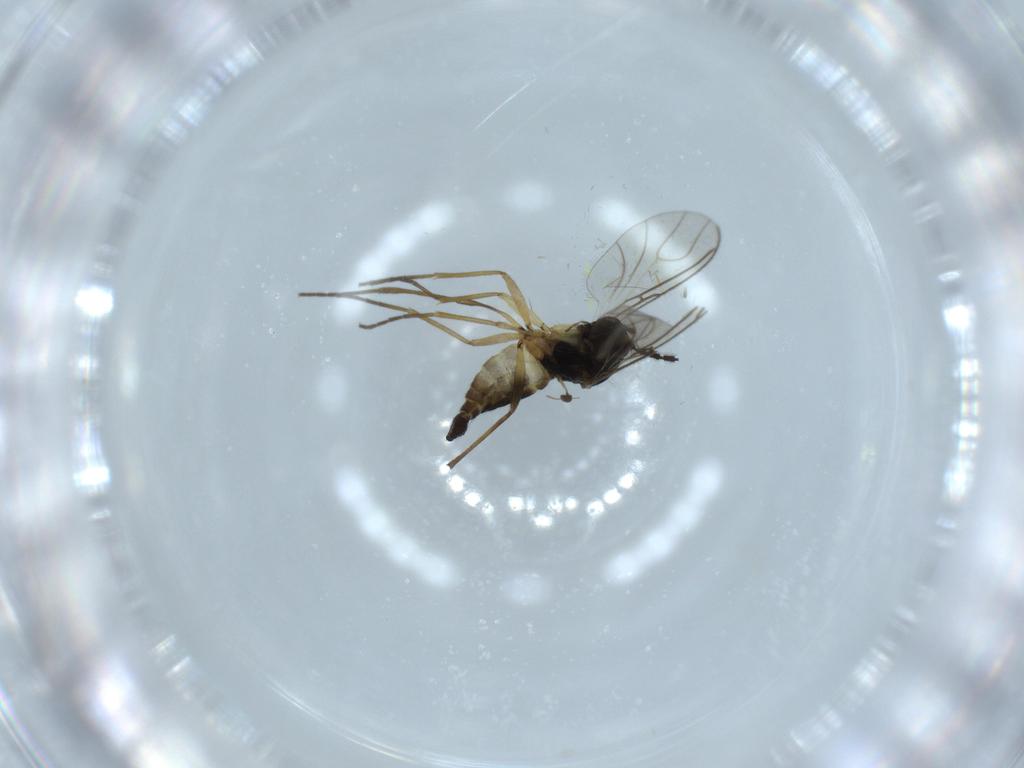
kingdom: Animalia
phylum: Arthropoda
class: Insecta
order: Diptera
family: Sciaridae
